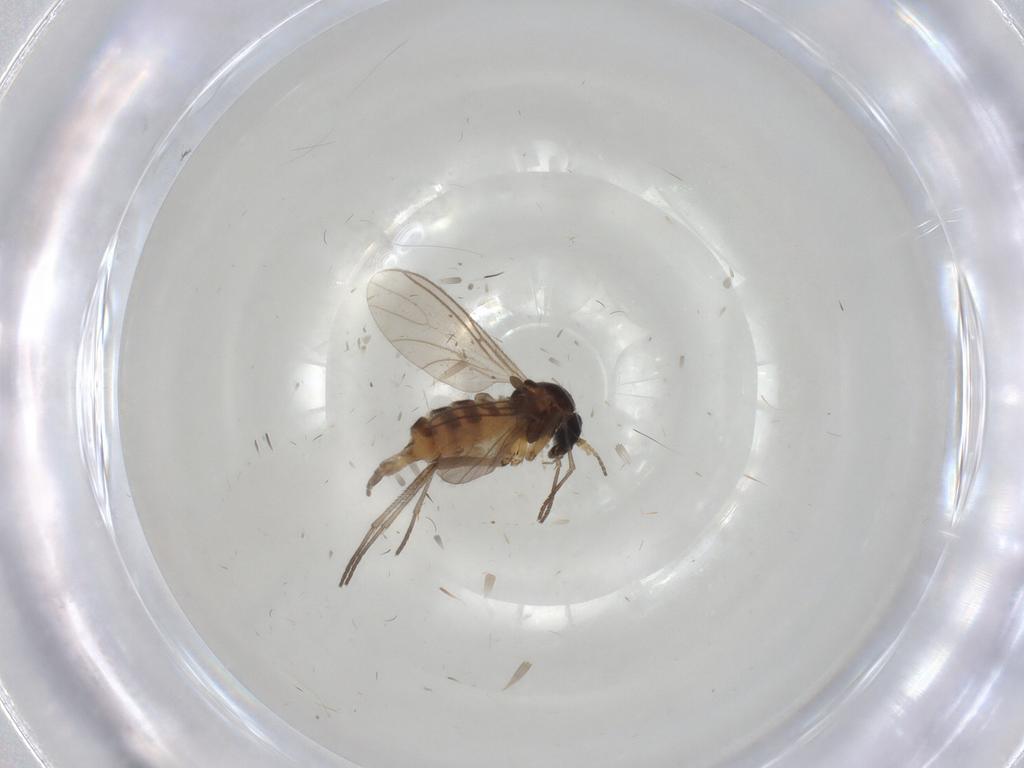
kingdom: Animalia
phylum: Arthropoda
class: Insecta
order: Diptera
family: Sciaridae
